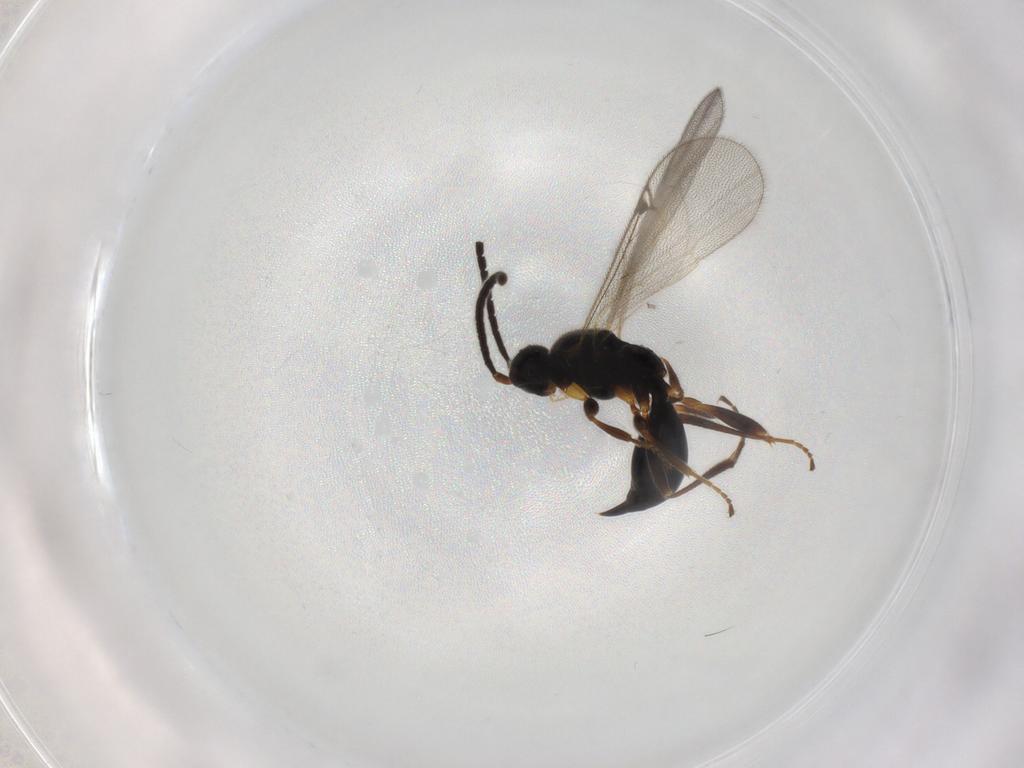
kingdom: Animalia
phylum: Arthropoda
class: Insecta
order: Hymenoptera
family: Proctotrupidae
